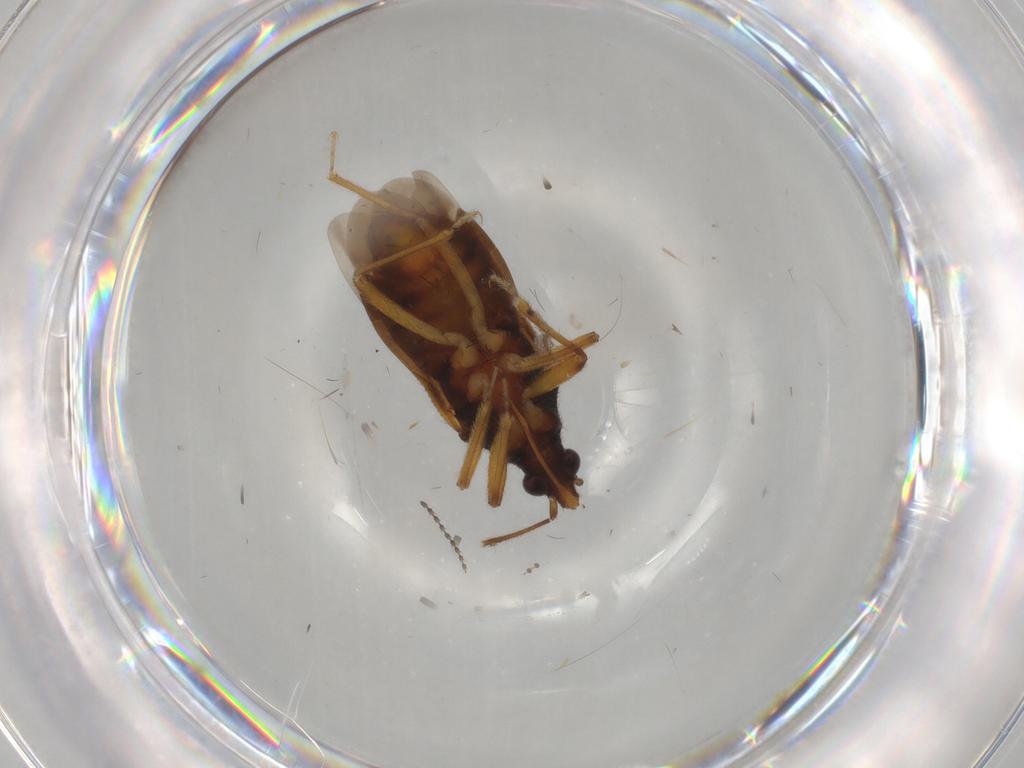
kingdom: Animalia
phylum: Arthropoda
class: Insecta
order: Hemiptera
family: Anthocoridae
